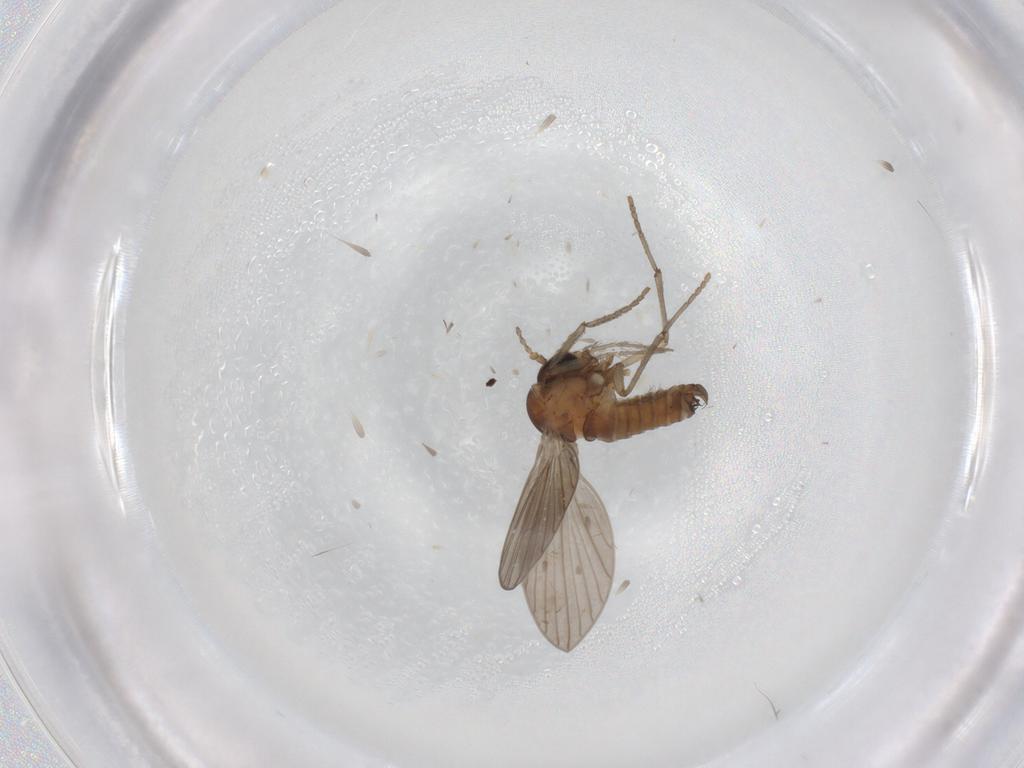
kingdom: Animalia
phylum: Arthropoda
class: Insecta
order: Diptera
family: Psychodidae
